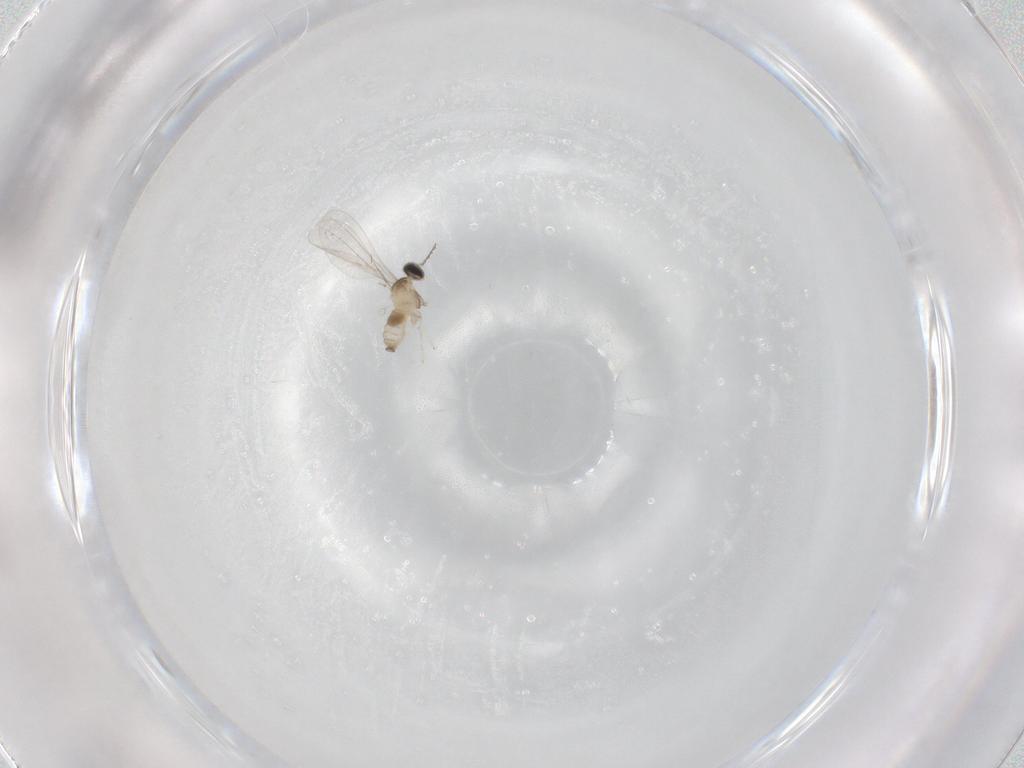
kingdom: Animalia
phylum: Arthropoda
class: Insecta
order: Diptera
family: Cecidomyiidae
